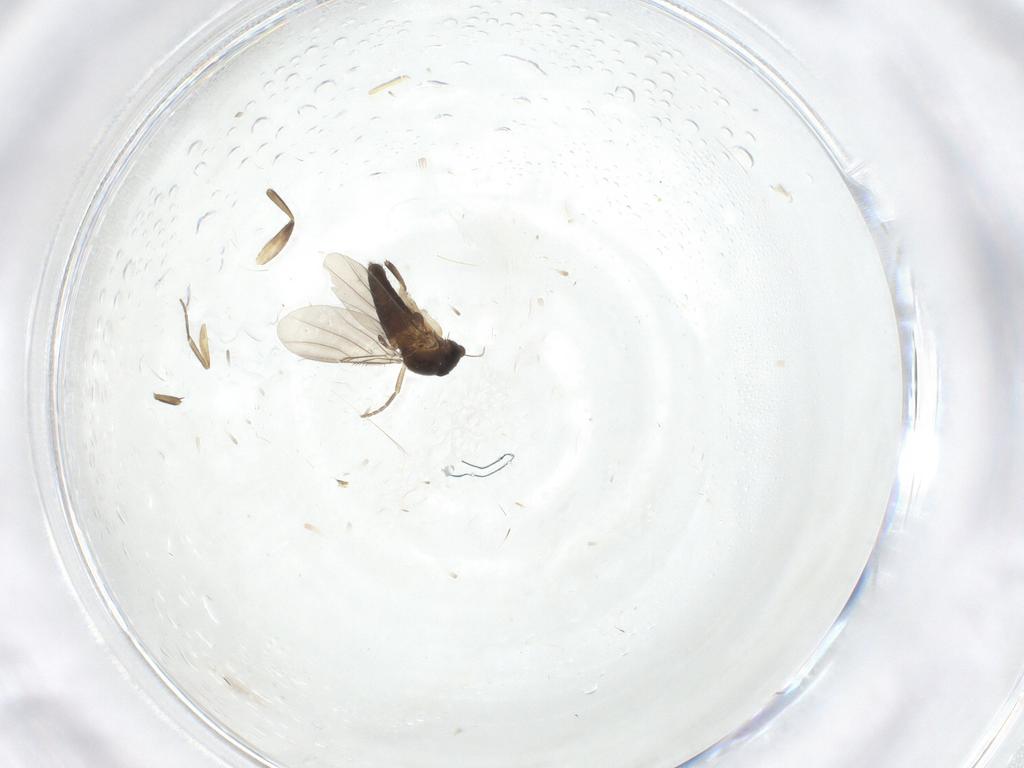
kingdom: Animalia
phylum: Arthropoda
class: Insecta
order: Diptera
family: Phoridae
